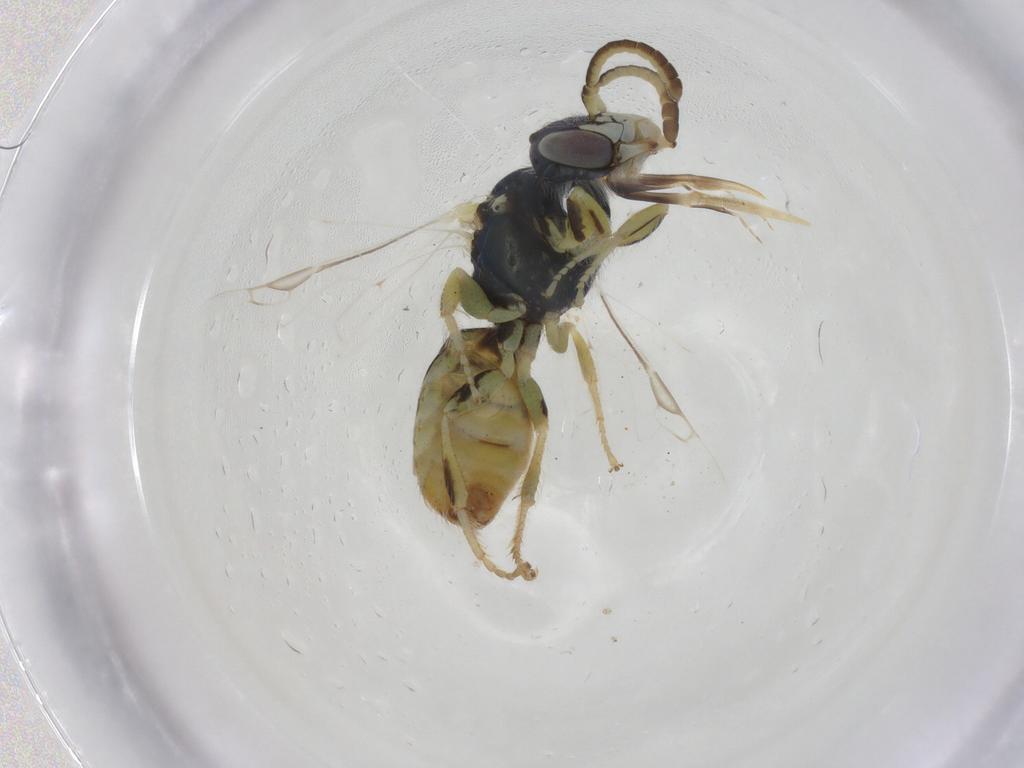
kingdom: Animalia
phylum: Arthropoda
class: Insecta
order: Hymenoptera
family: Andrenidae
